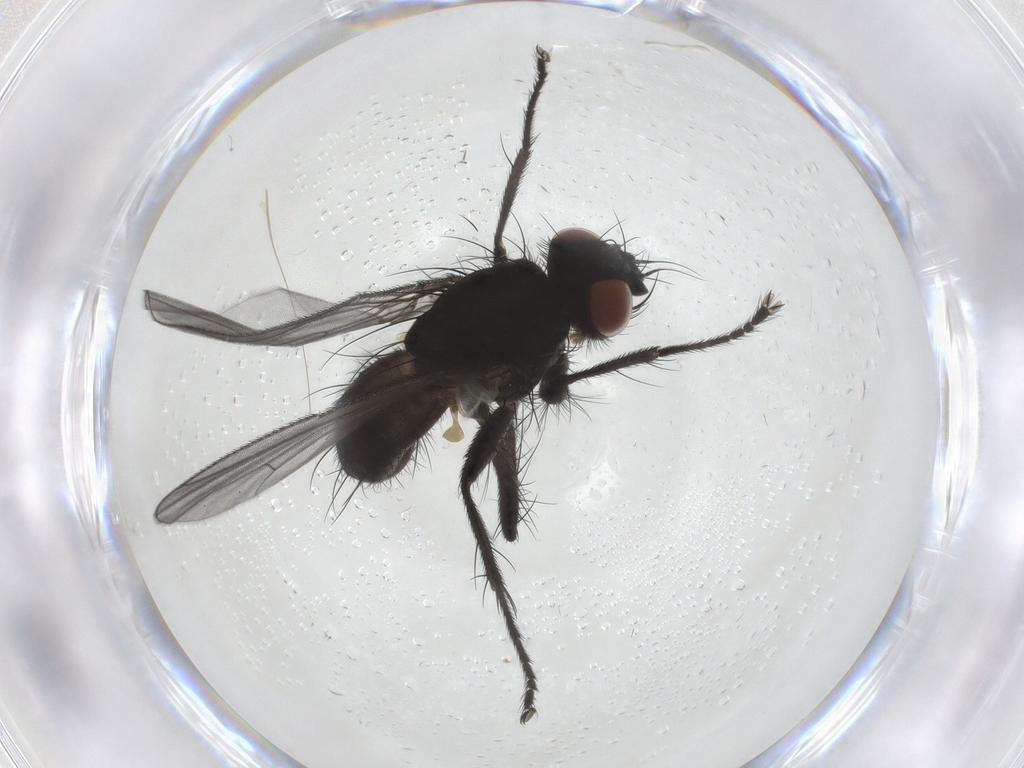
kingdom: Animalia
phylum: Arthropoda
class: Insecta
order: Diptera
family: Muscidae
